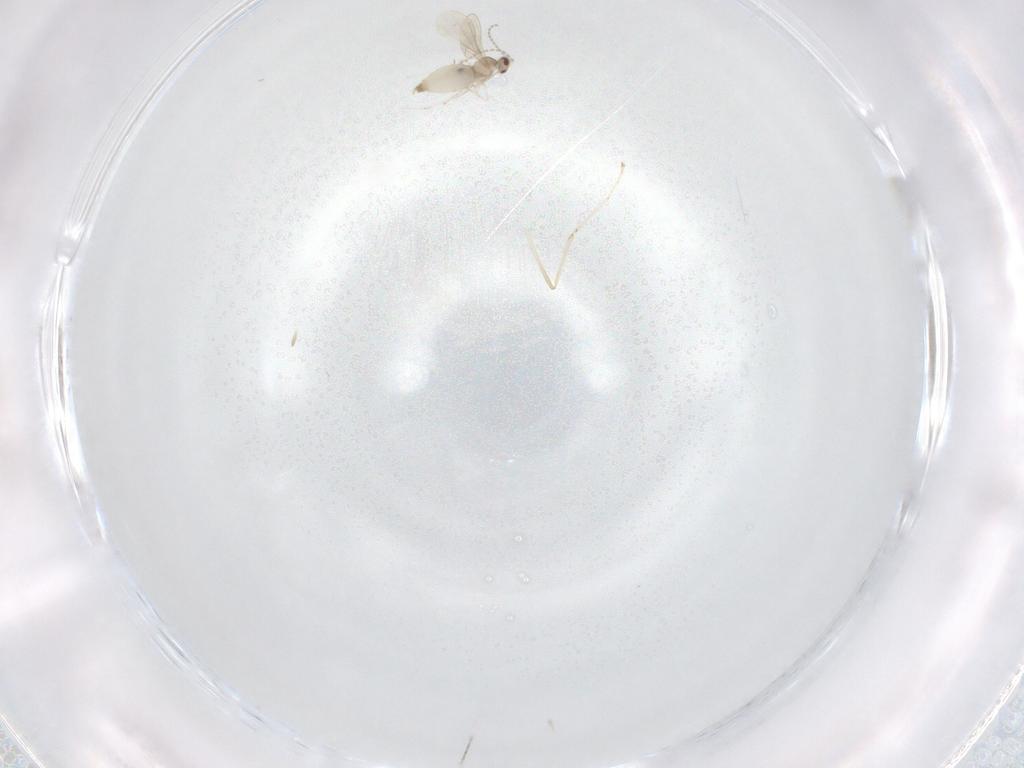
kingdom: Animalia
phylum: Arthropoda
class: Insecta
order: Diptera
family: Cecidomyiidae
